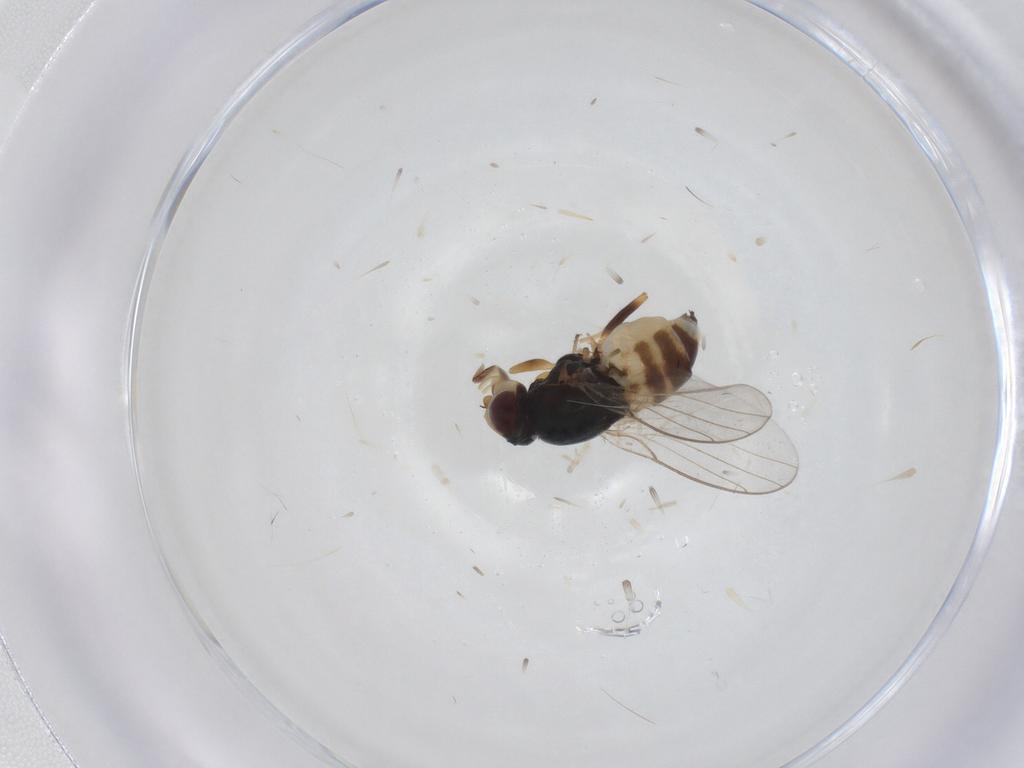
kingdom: Animalia
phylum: Arthropoda
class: Insecta
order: Diptera
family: Chloropidae
